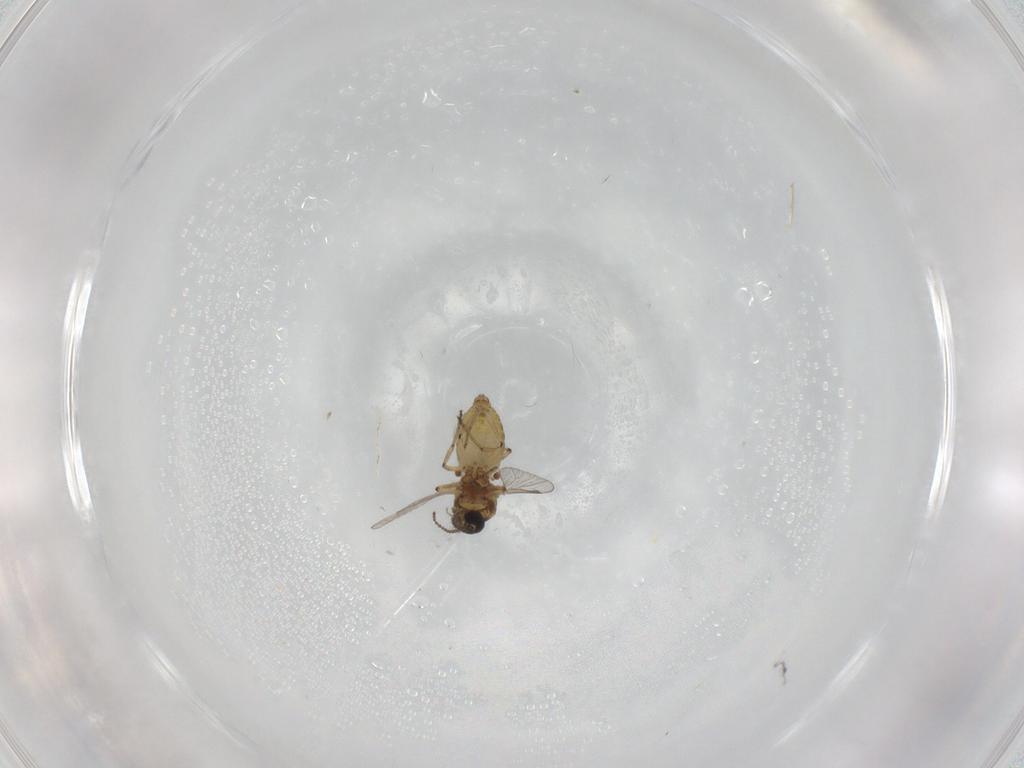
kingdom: Animalia
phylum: Arthropoda
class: Insecta
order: Diptera
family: Ceratopogonidae
